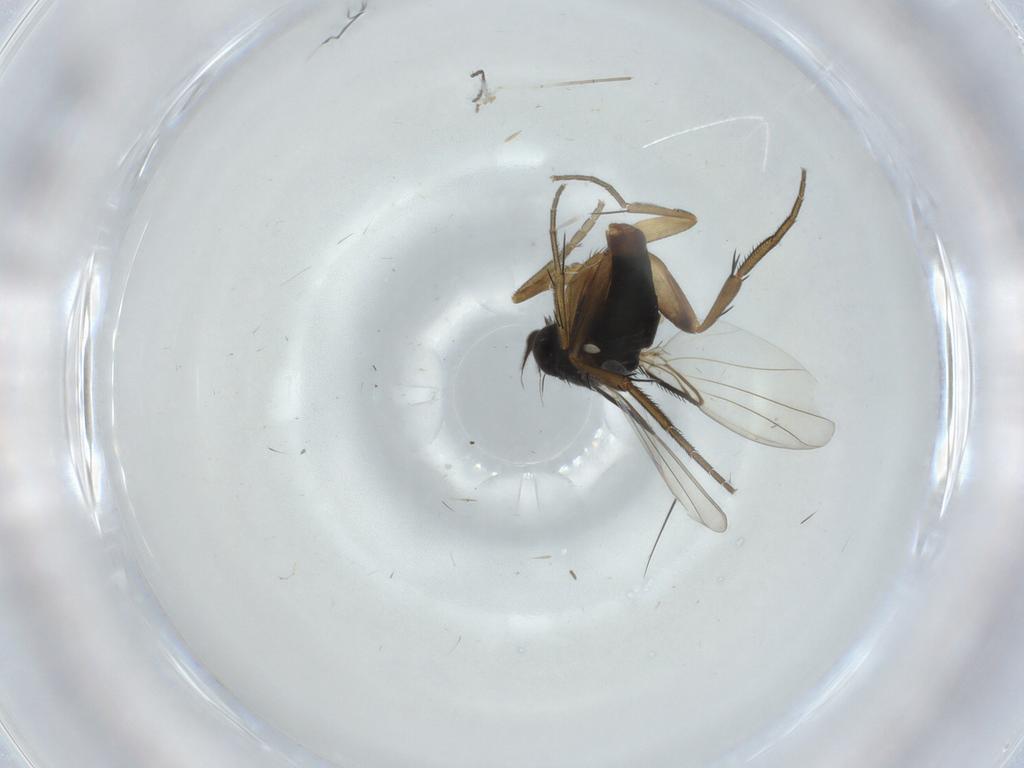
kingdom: Animalia
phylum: Arthropoda
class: Insecta
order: Diptera
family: Phoridae
